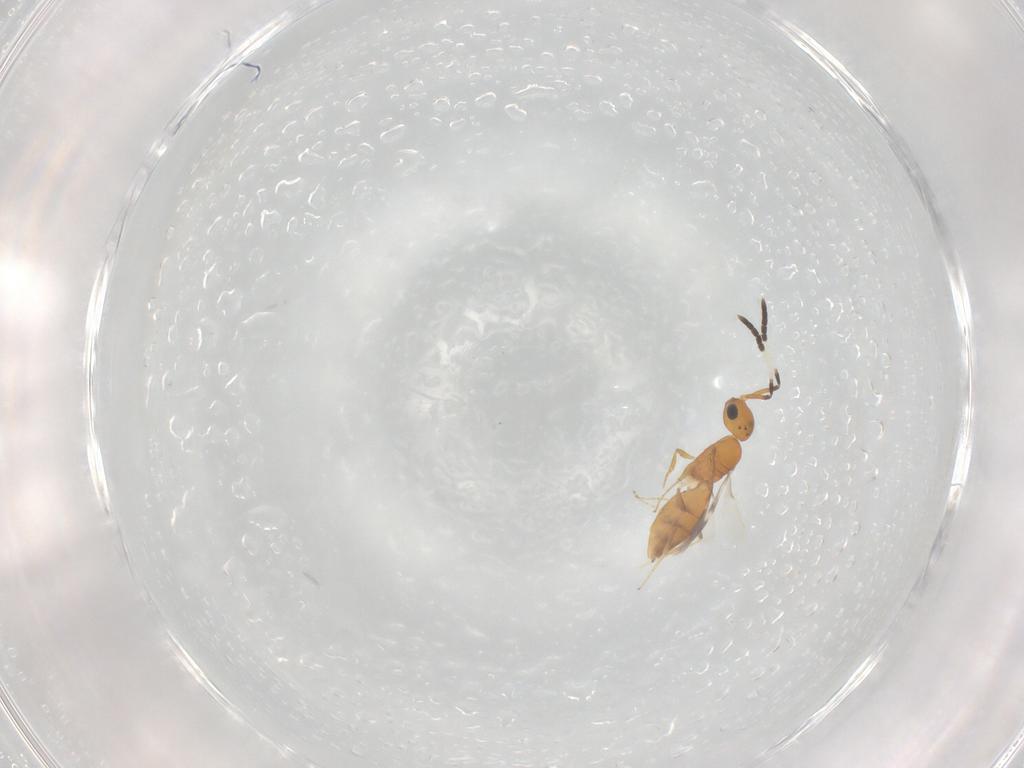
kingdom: Animalia
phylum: Arthropoda
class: Insecta
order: Hymenoptera
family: Scelionidae
